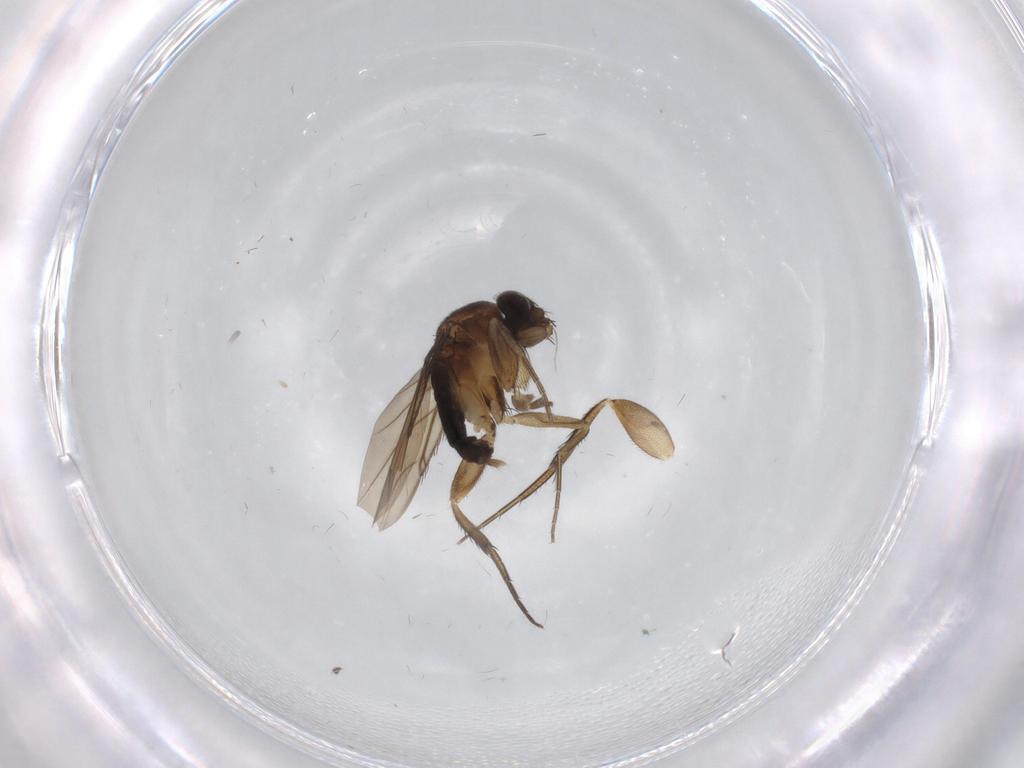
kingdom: Animalia
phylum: Arthropoda
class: Insecta
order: Diptera
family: Phoridae
